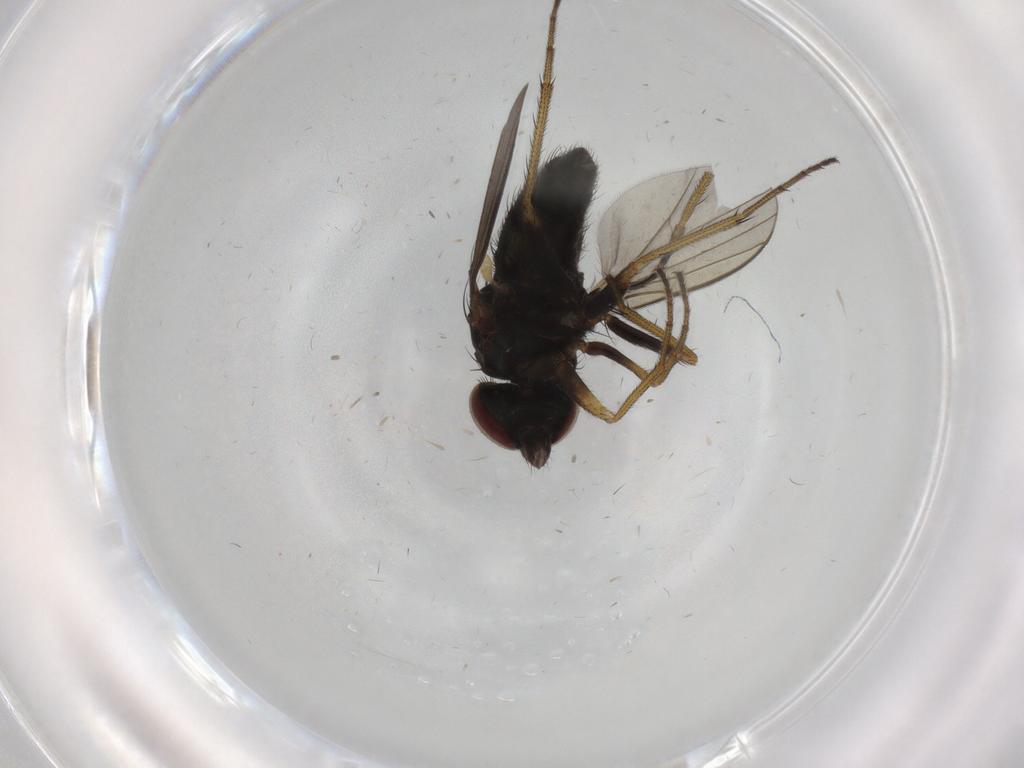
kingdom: Animalia
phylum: Arthropoda
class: Insecta
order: Diptera
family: Dolichopodidae
